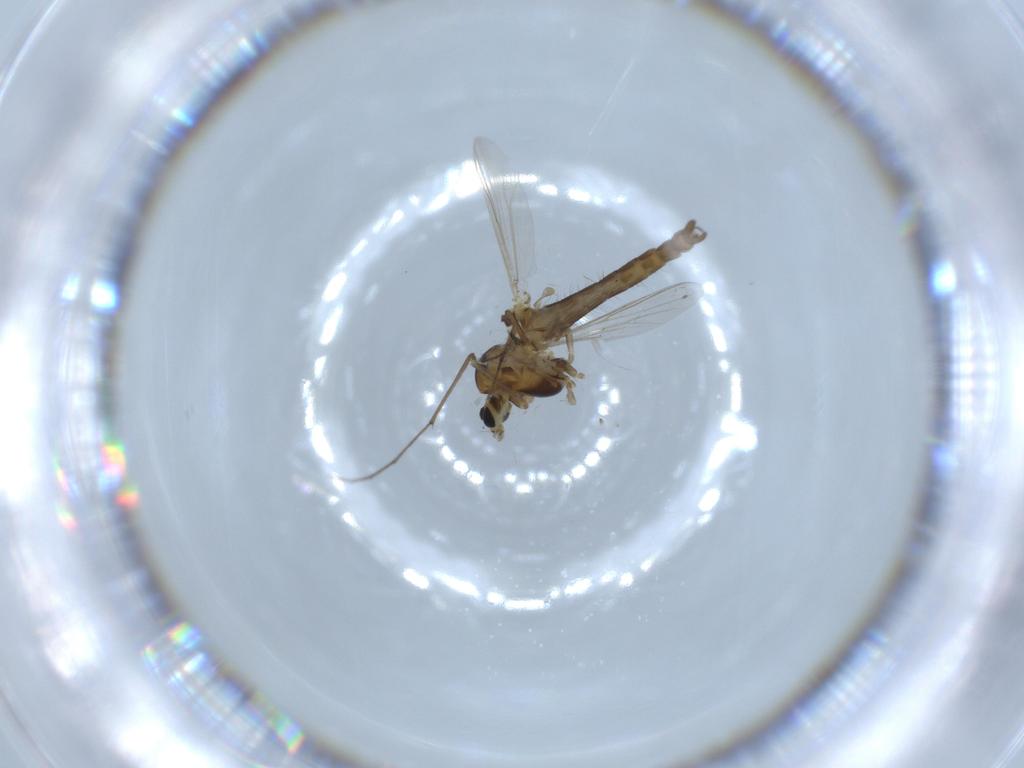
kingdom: Animalia
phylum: Arthropoda
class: Insecta
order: Diptera
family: Chironomidae
